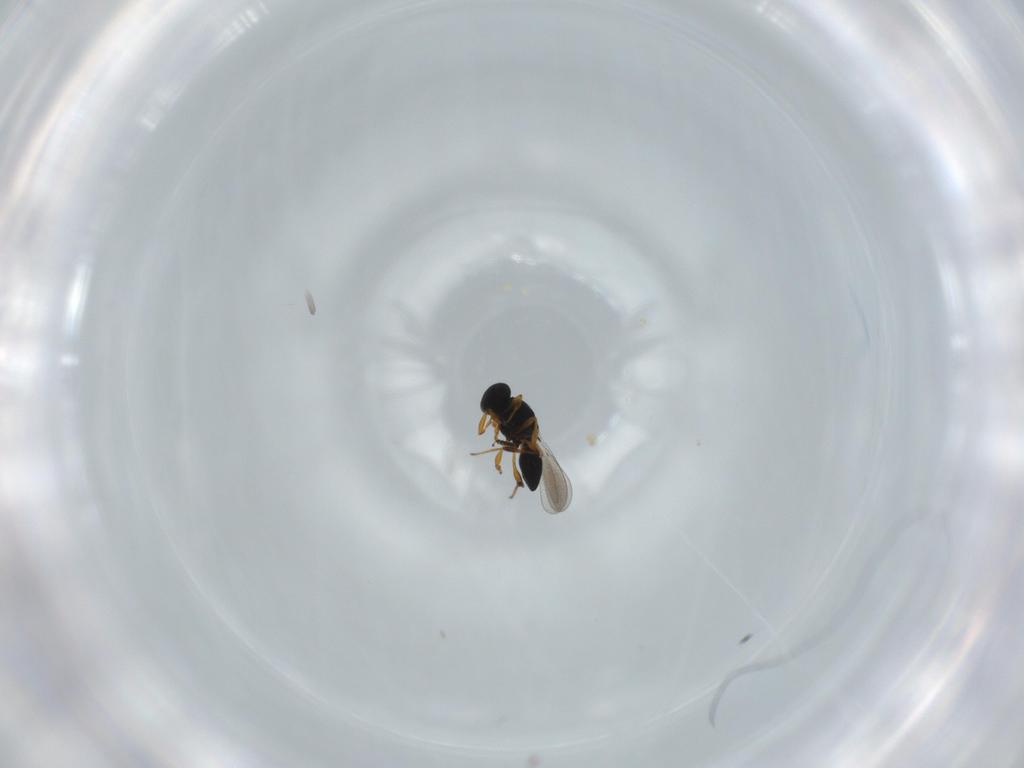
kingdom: Animalia
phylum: Arthropoda
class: Insecta
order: Hymenoptera
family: Platygastridae
